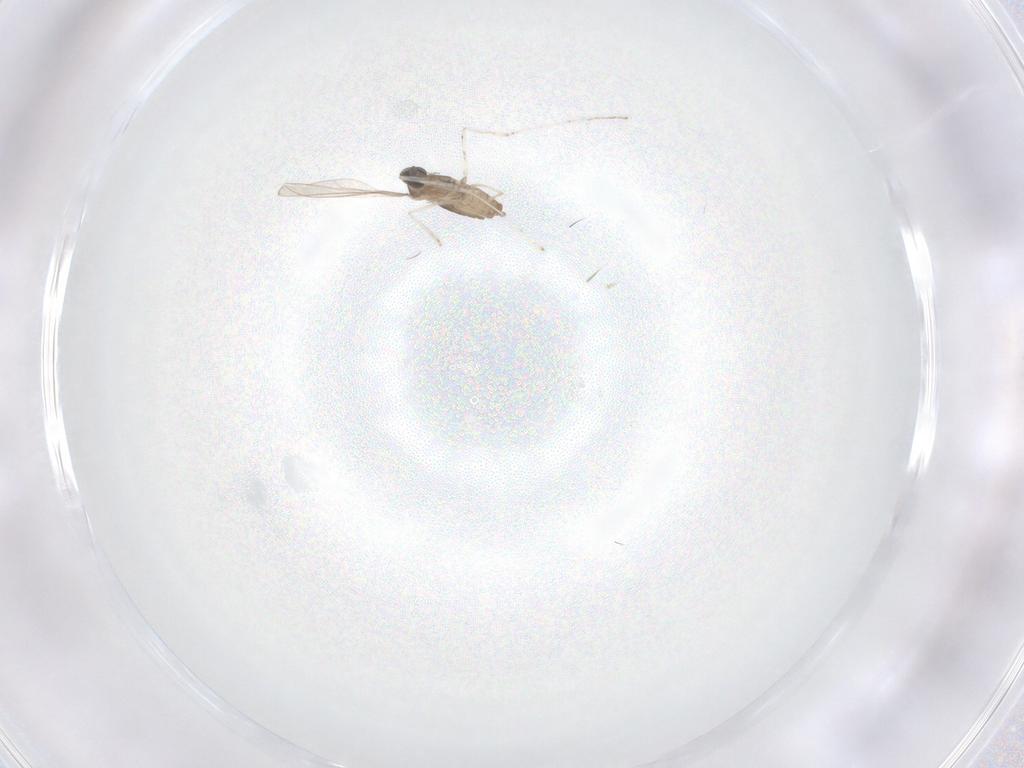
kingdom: Animalia
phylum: Arthropoda
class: Insecta
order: Diptera
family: Cecidomyiidae
